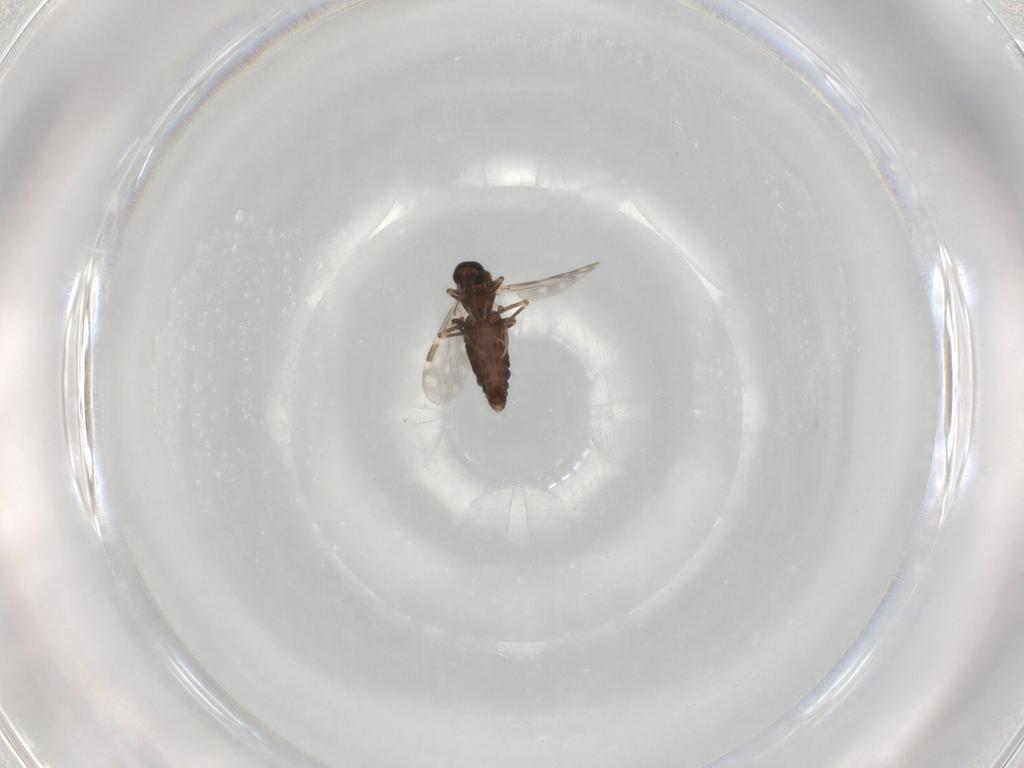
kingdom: Animalia
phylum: Arthropoda
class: Insecta
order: Diptera
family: Ceratopogonidae
